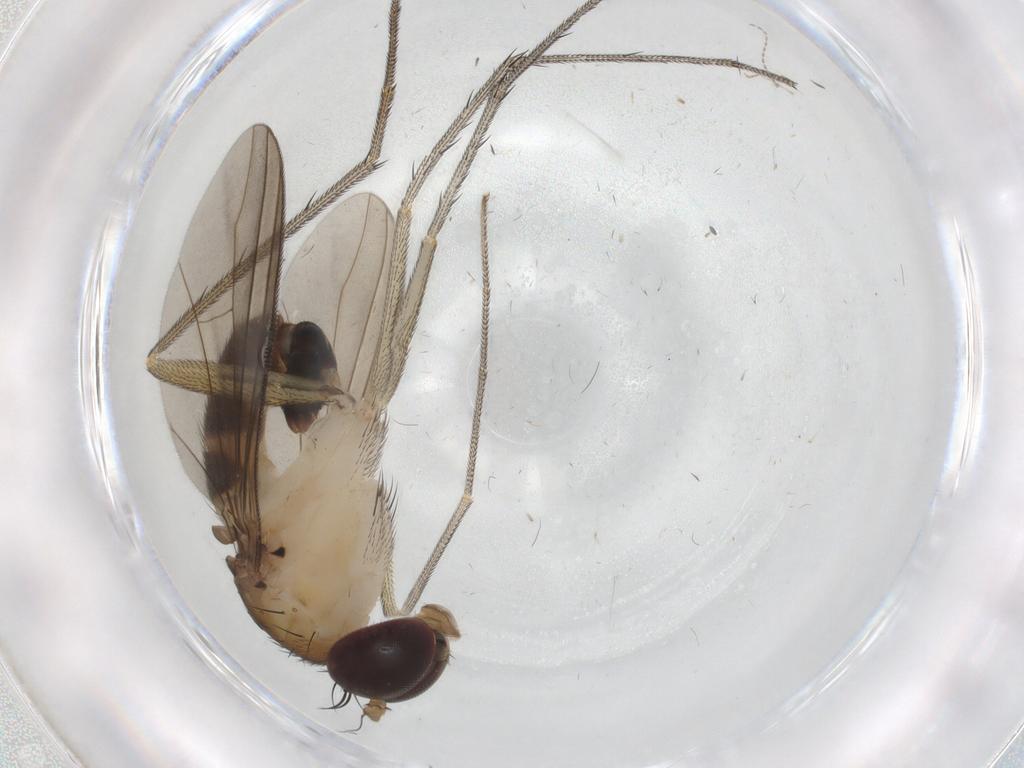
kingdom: Animalia
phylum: Arthropoda
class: Insecta
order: Diptera
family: Dolichopodidae
